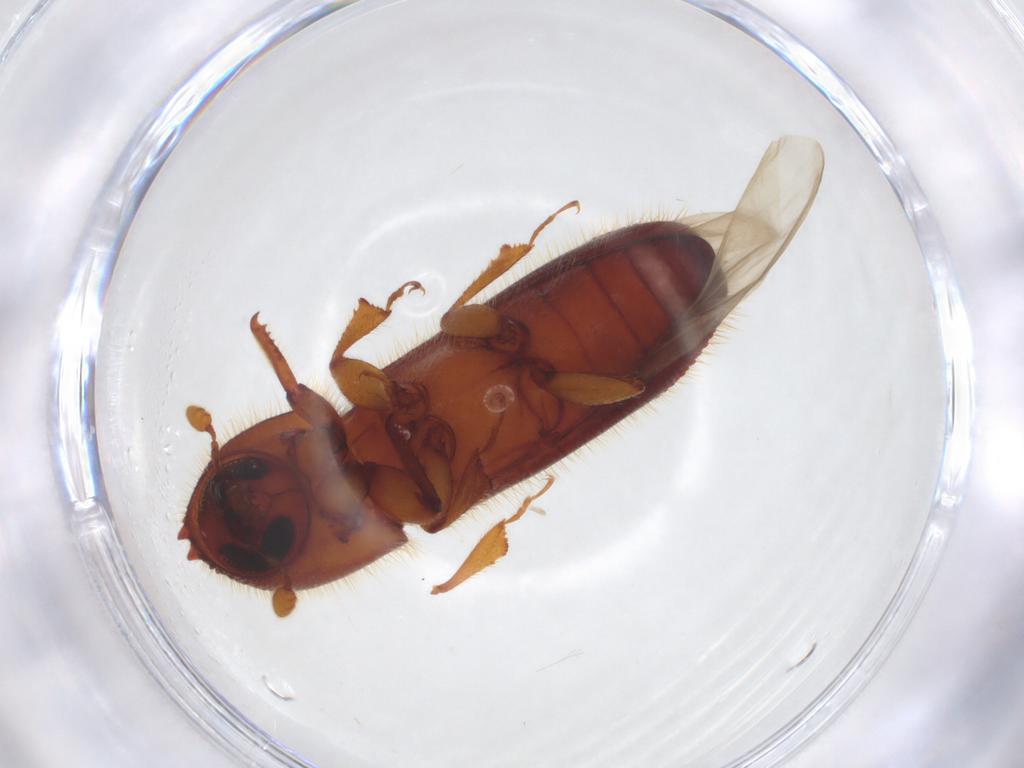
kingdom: Animalia
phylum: Arthropoda
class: Insecta
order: Coleoptera
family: Curculionidae
